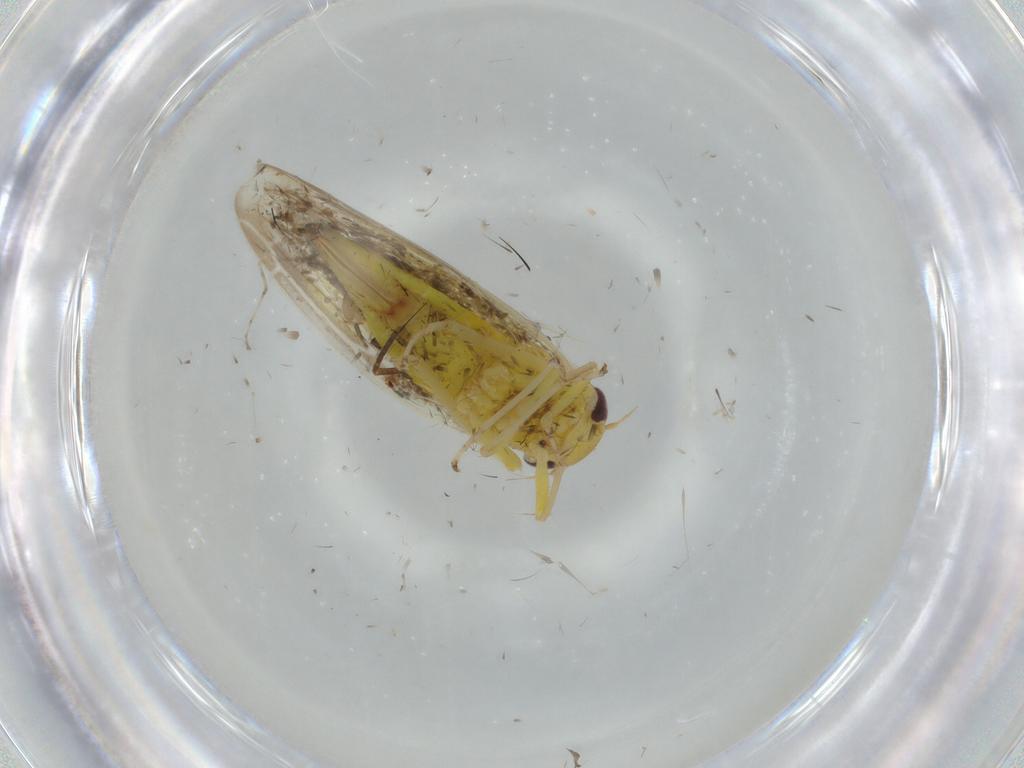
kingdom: Animalia
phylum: Arthropoda
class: Insecta
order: Hemiptera
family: Cicadellidae
